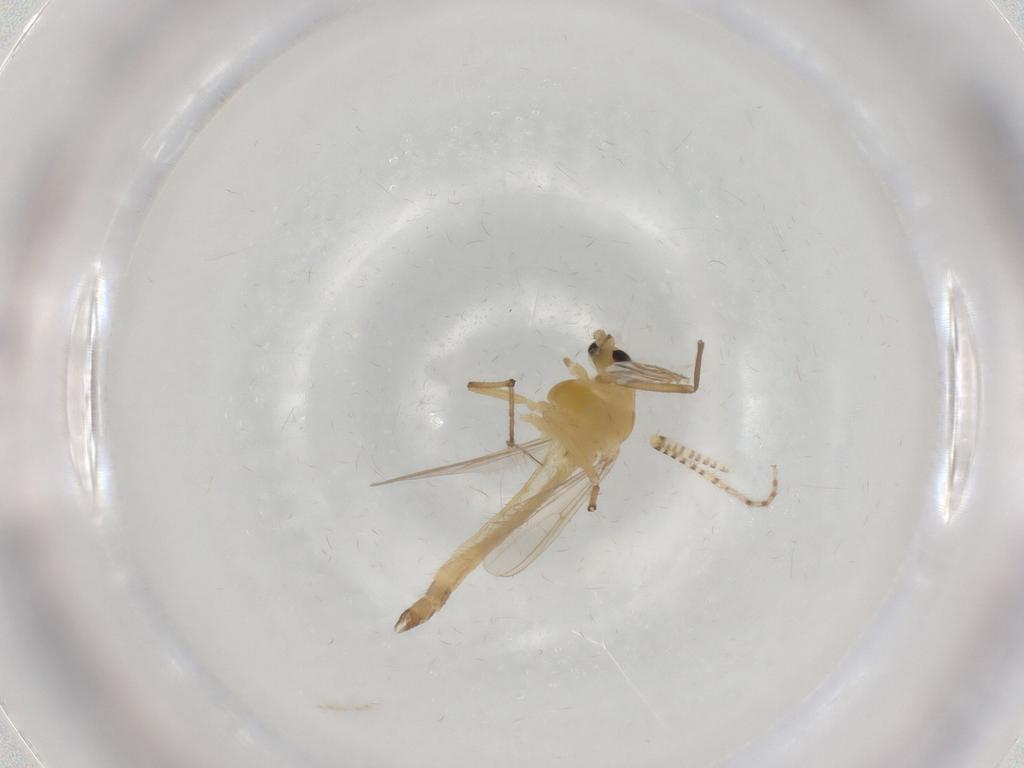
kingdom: Animalia
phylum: Arthropoda
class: Insecta
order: Diptera
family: Chironomidae
